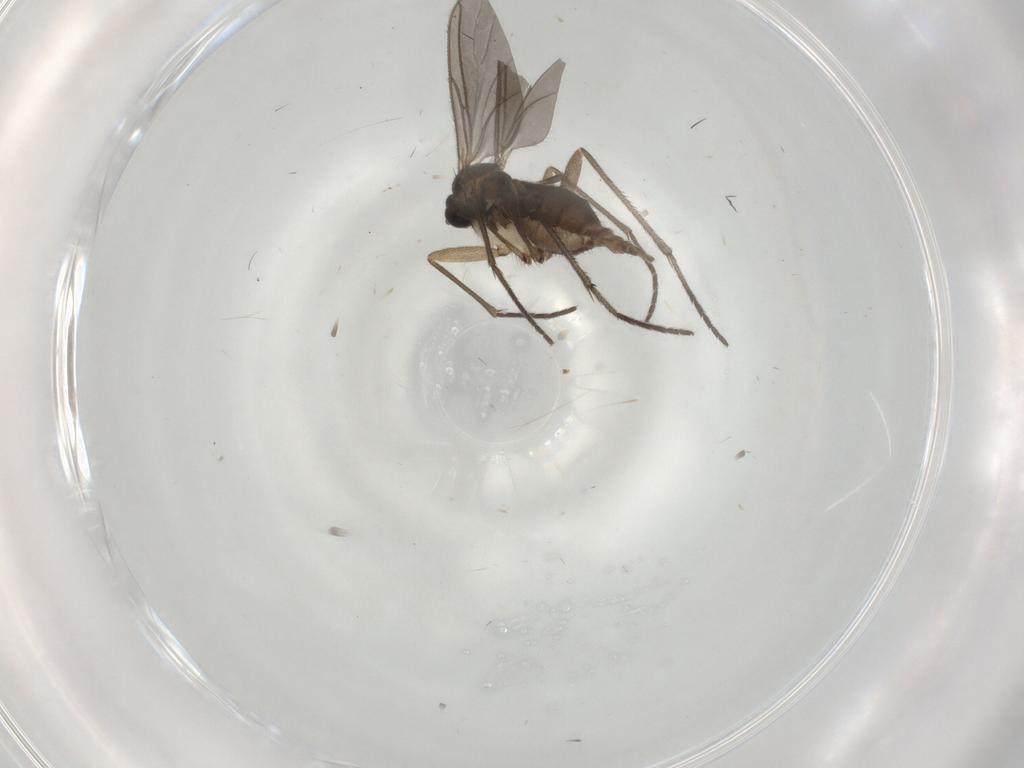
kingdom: Animalia
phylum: Arthropoda
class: Insecta
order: Diptera
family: Sciaridae
